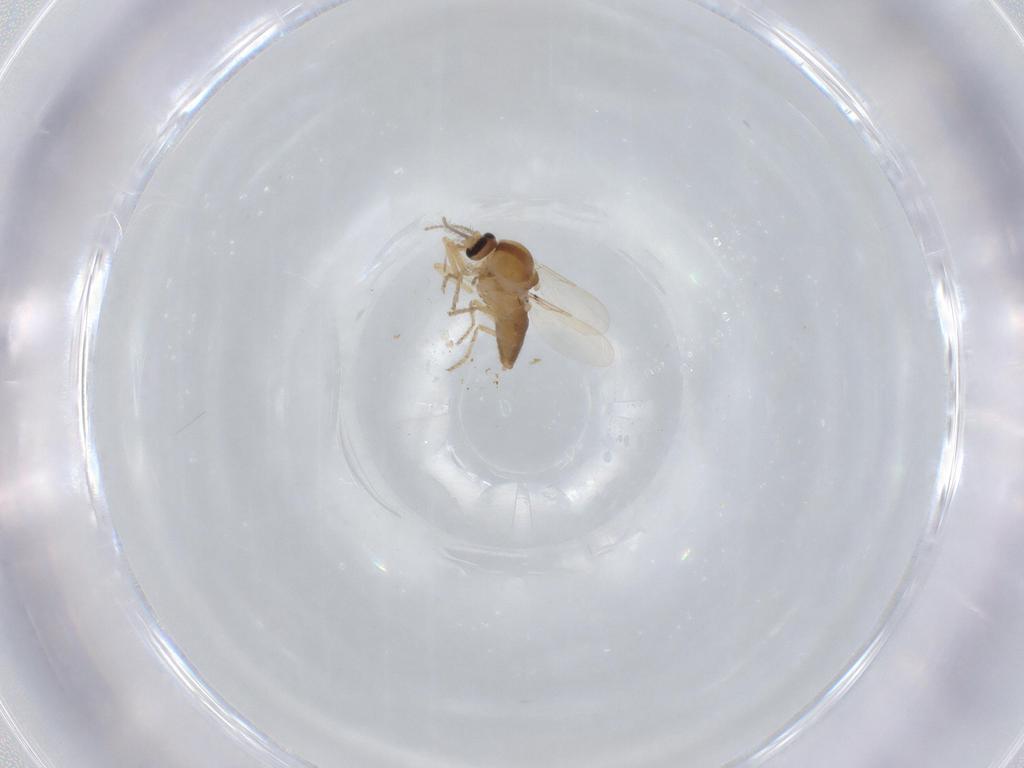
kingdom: Animalia
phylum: Arthropoda
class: Insecta
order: Diptera
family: Ceratopogonidae
